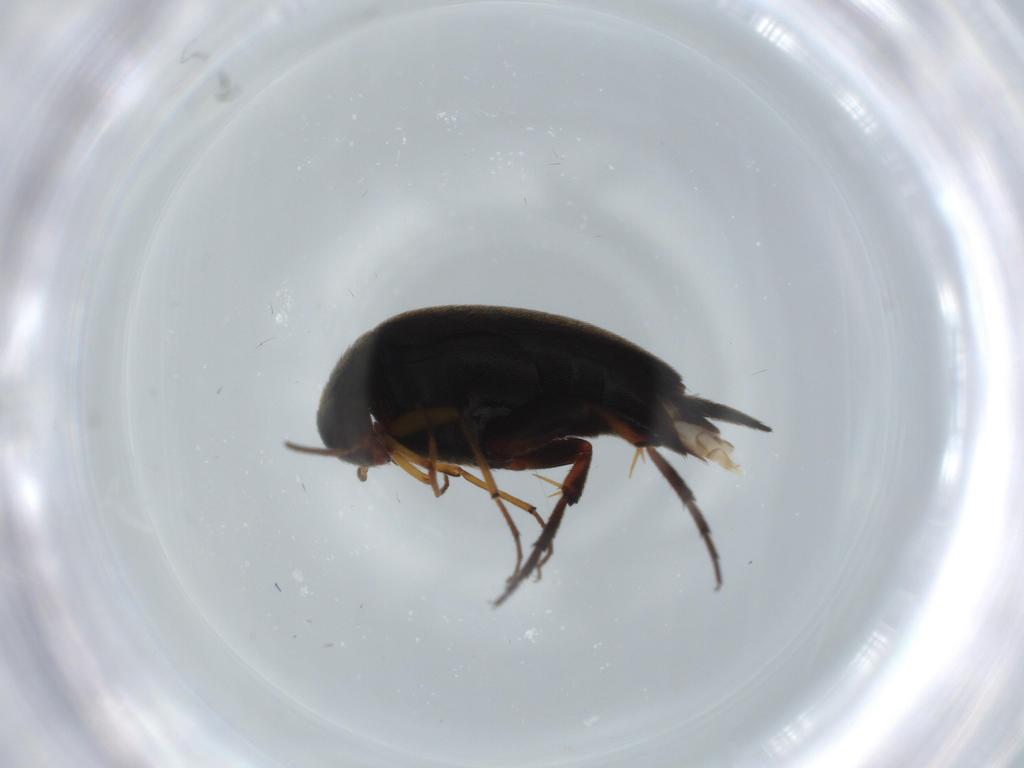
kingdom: Animalia
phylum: Arthropoda
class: Insecta
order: Coleoptera
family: Mordellidae
